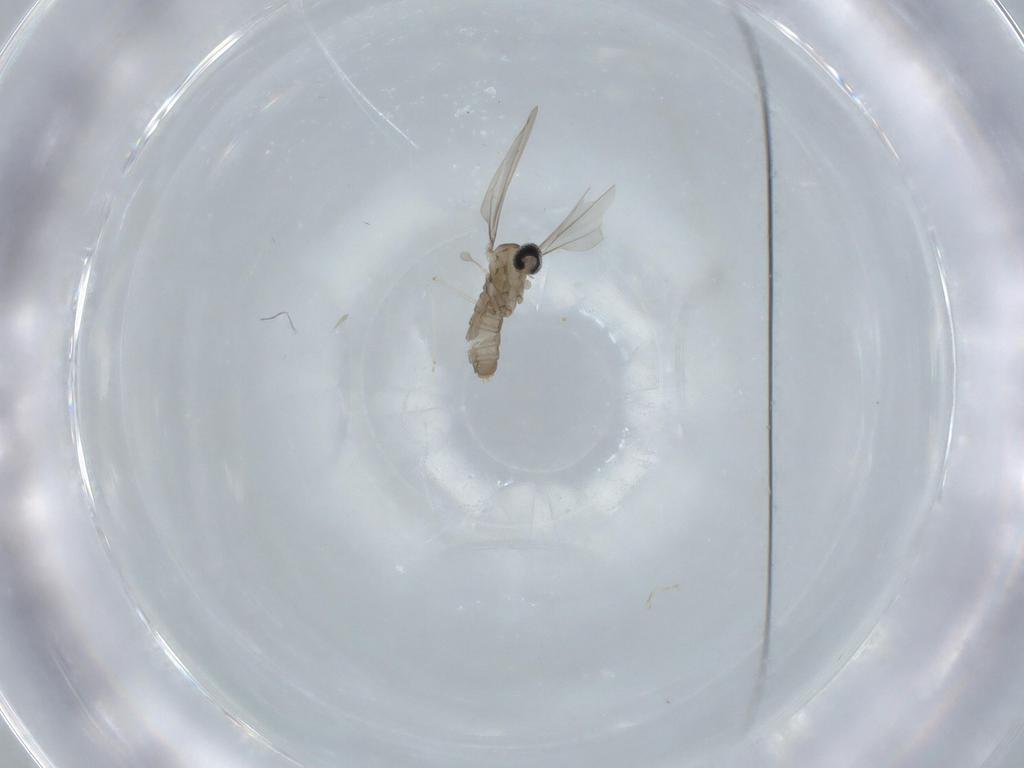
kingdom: Animalia
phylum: Arthropoda
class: Insecta
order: Diptera
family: Cecidomyiidae
